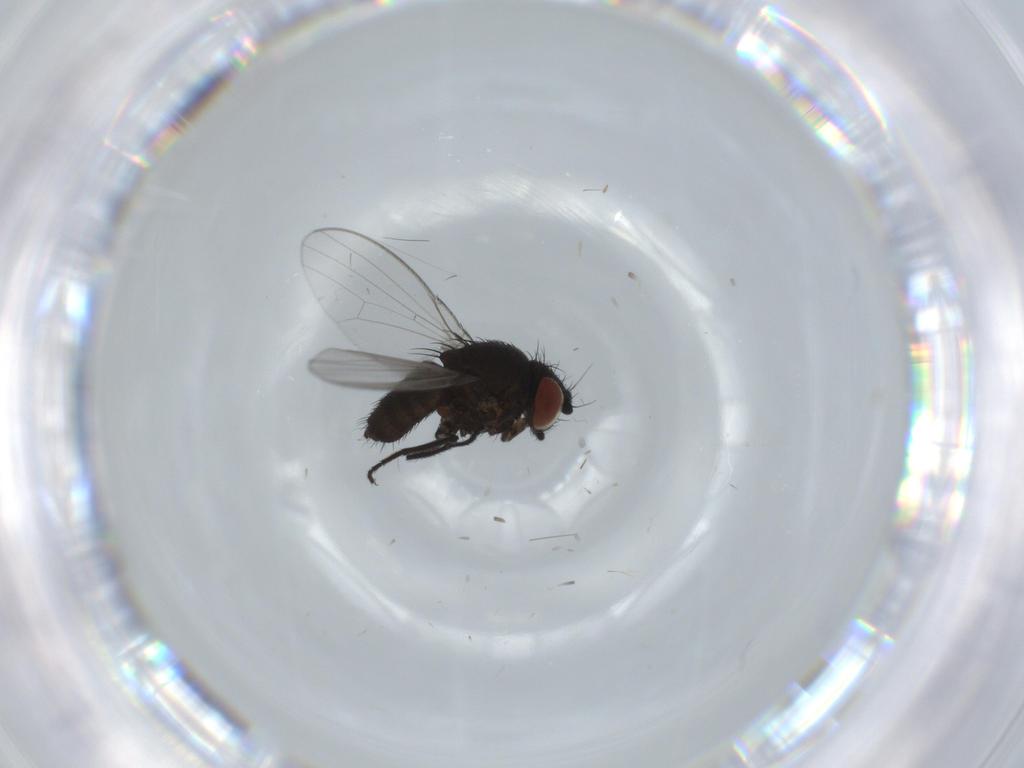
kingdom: Animalia
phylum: Arthropoda
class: Insecta
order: Diptera
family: Milichiidae
